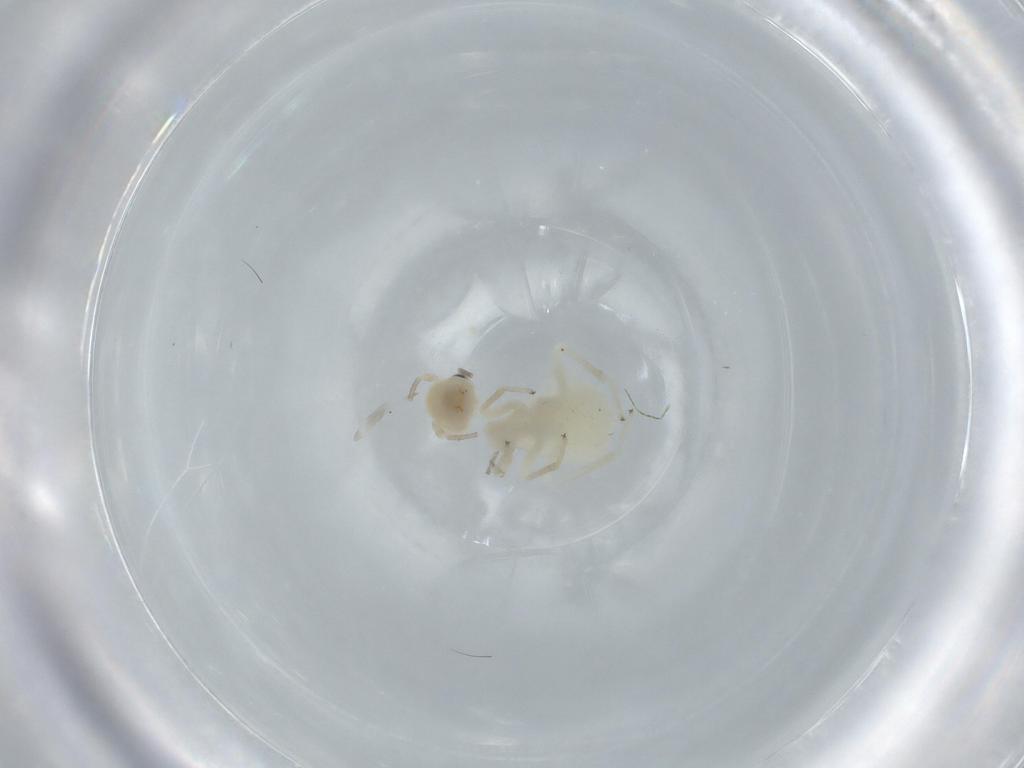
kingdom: Animalia
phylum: Arthropoda
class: Insecta
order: Psocodea
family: Caeciliusidae
